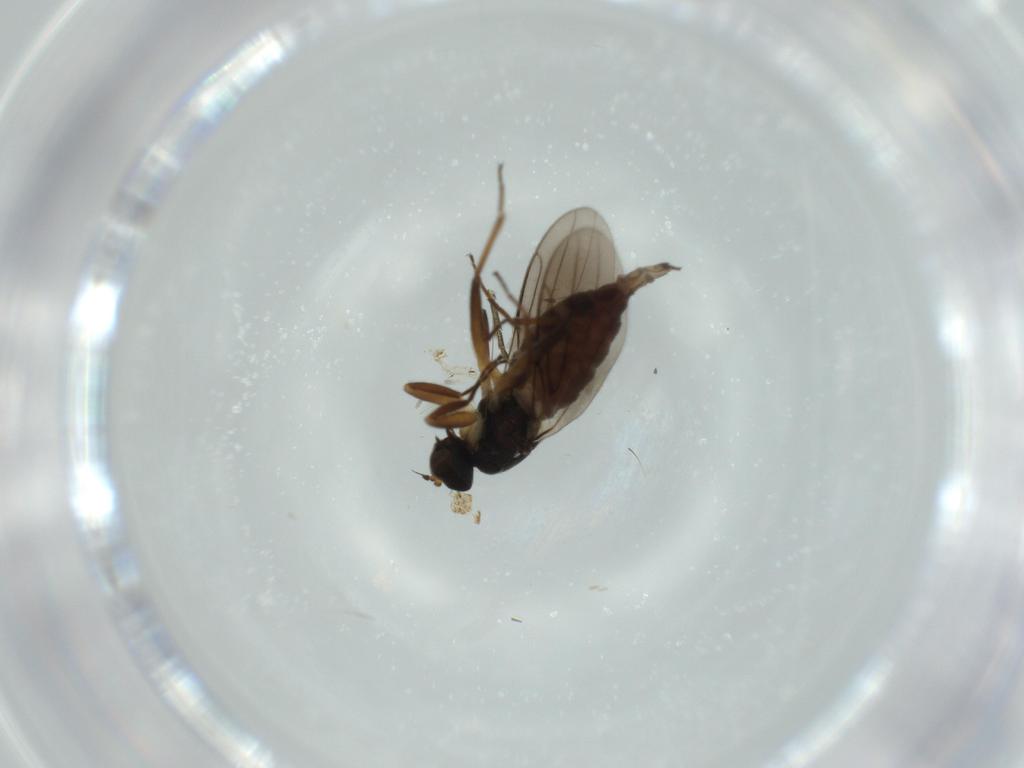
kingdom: Animalia
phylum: Arthropoda
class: Insecta
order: Diptera
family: Hybotidae
